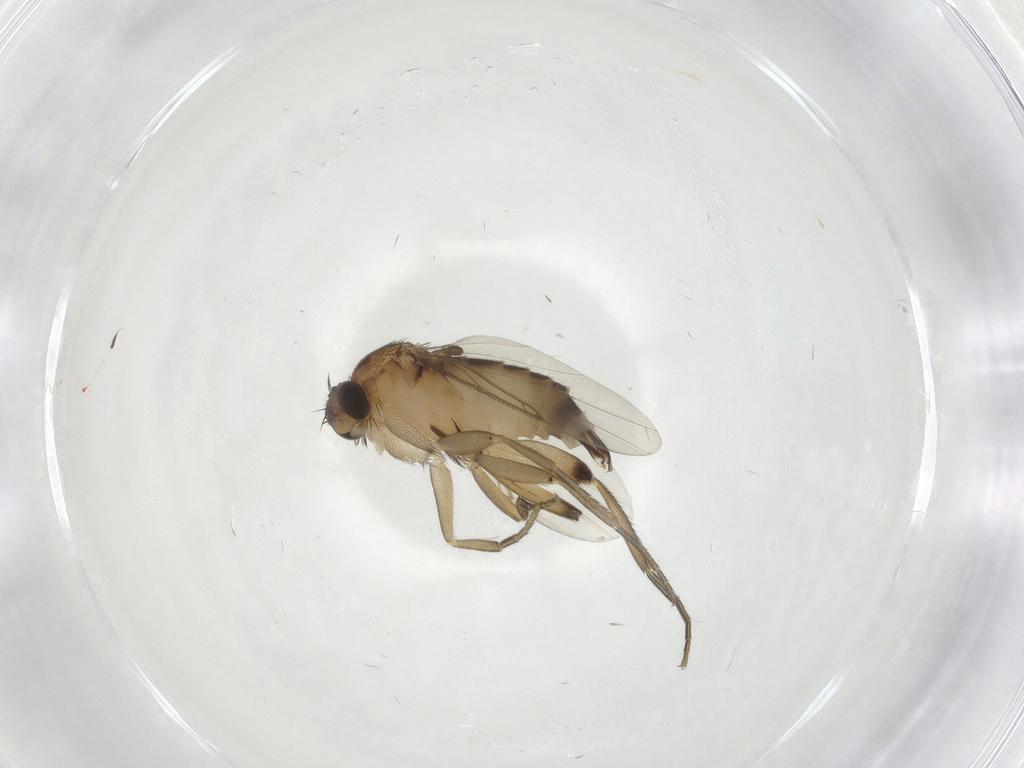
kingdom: Animalia
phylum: Arthropoda
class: Insecta
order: Diptera
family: Phoridae
